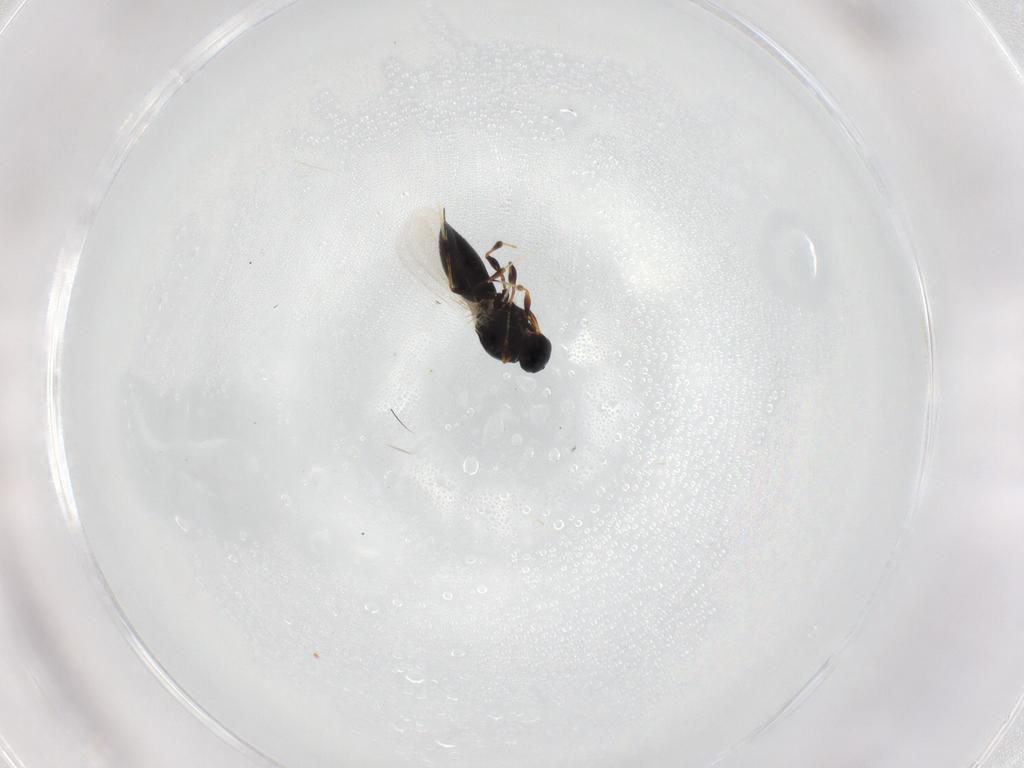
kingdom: Animalia
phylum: Arthropoda
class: Insecta
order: Hymenoptera
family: Platygastridae
